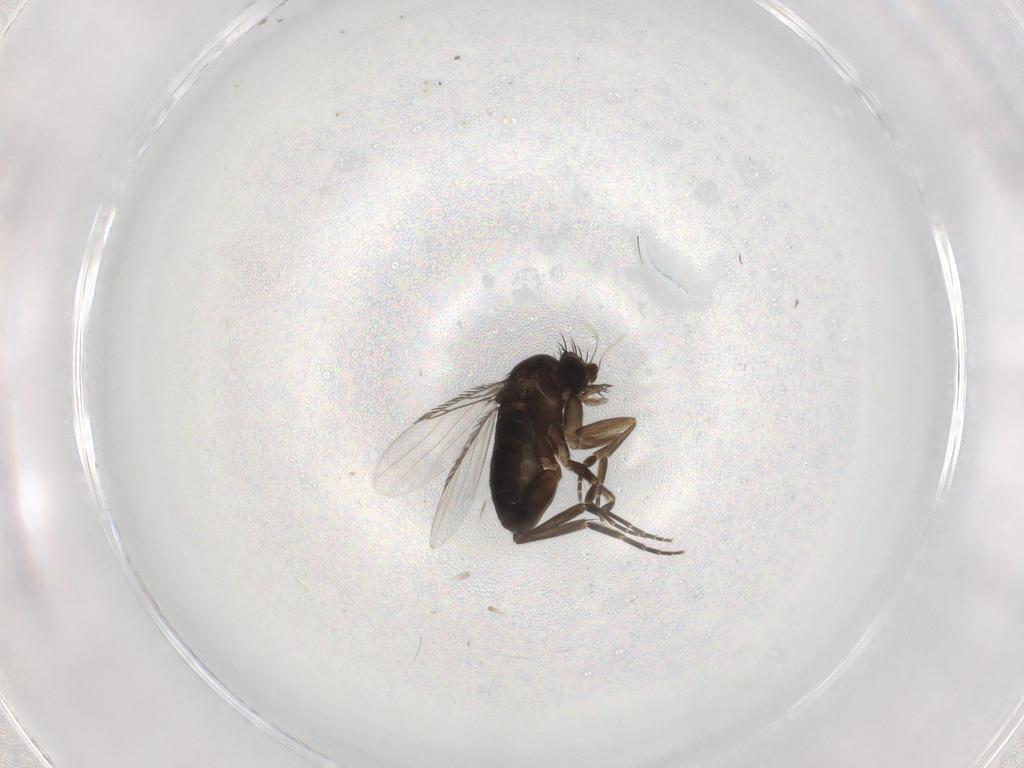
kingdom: Animalia
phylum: Arthropoda
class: Insecta
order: Diptera
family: Phoridae
